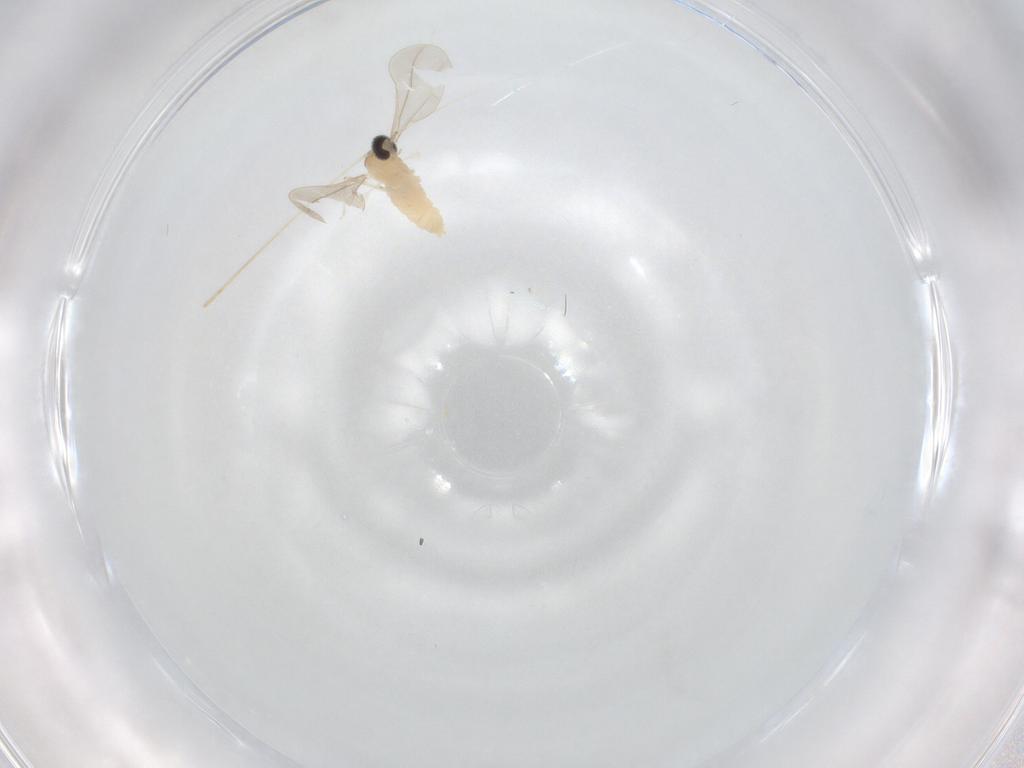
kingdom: Animalia
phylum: Arthropoda
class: Insecta
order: Diptera
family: Cecidomyiidae
